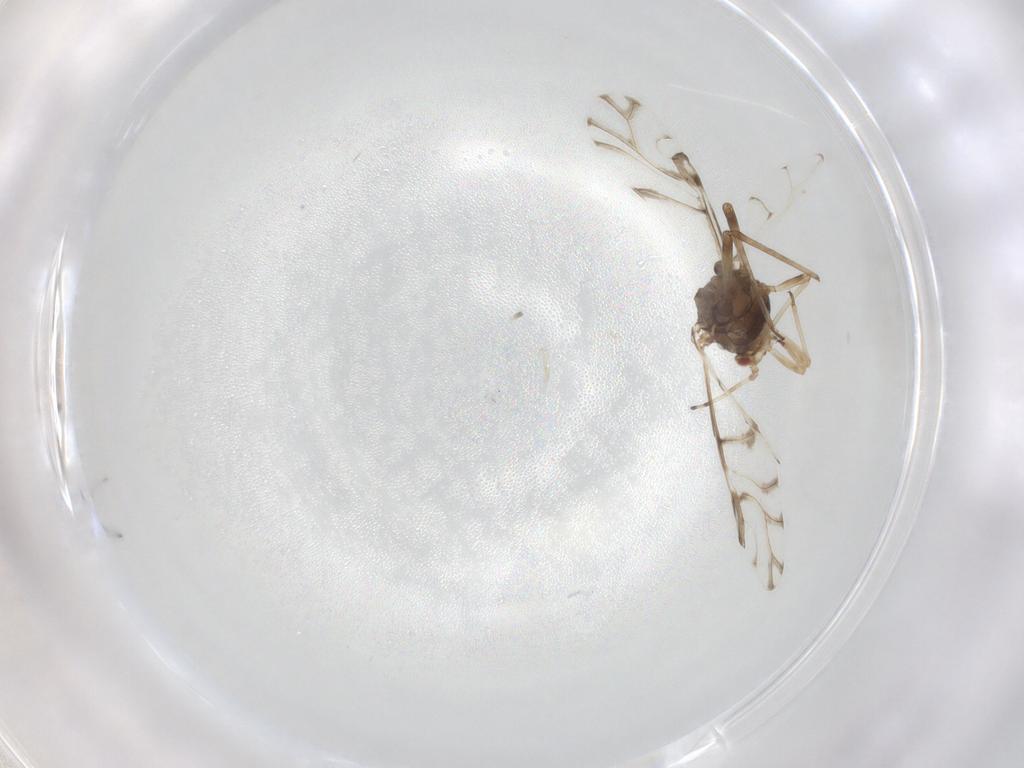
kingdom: Animalia
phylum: Arthropoda
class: Insecta
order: Hemiptera
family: Aphididae
